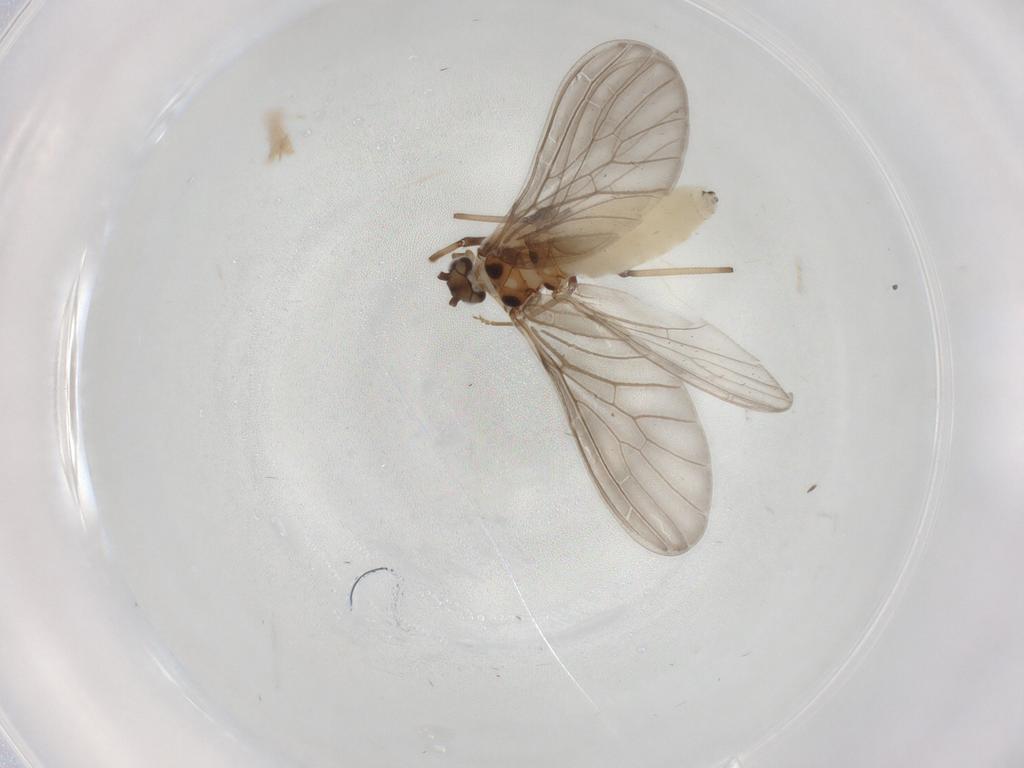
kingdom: Animalia
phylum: Arthropoda
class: Insecta
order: Neuroptera
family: Coniopterygidae
